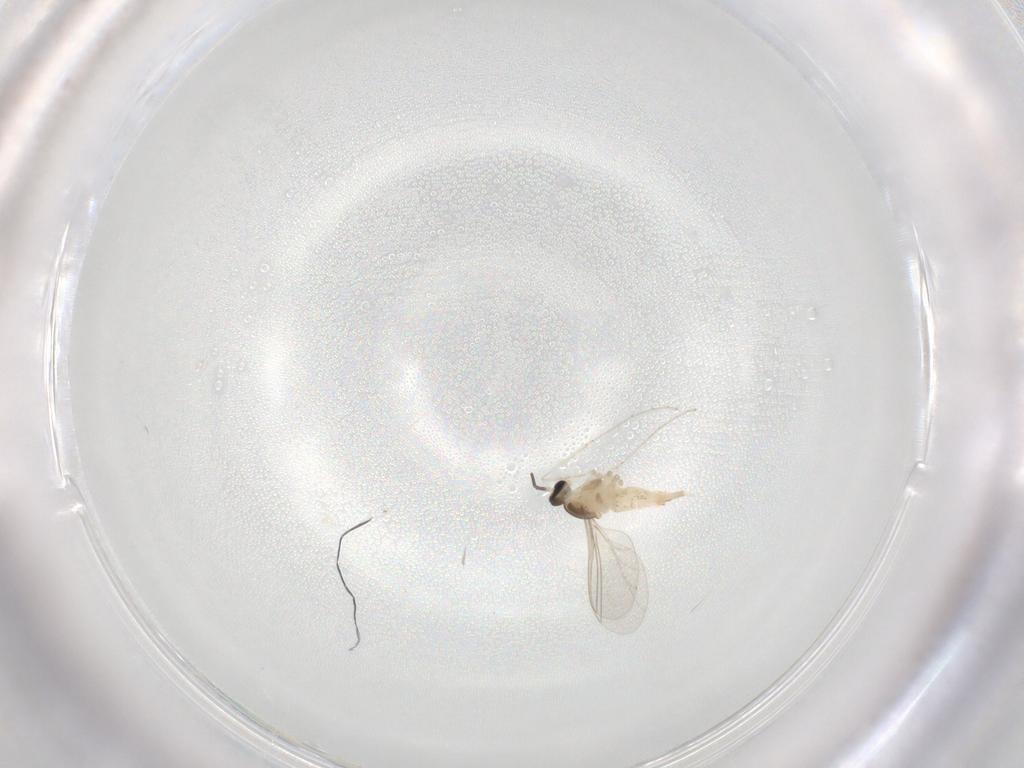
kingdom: Animalia
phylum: Arthropoda
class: Insecta
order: Diptera
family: Cecidomyiidae
